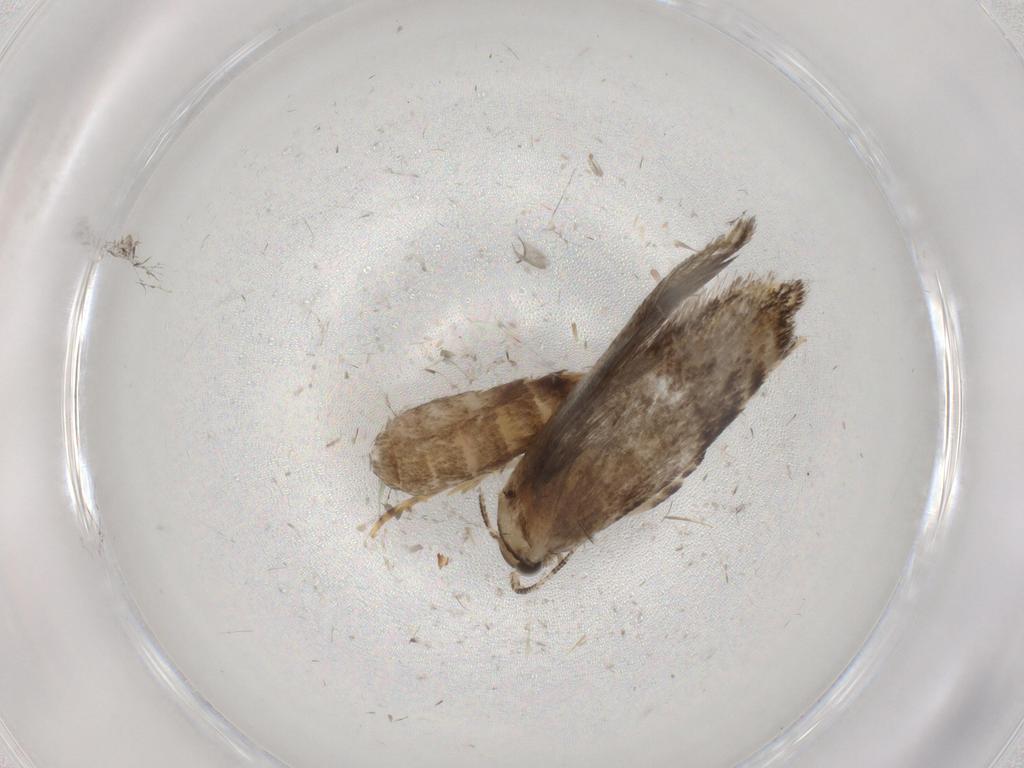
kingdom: Animalia
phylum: Arthropoda
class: Insecta
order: Lepidoptera
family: Tineidae
